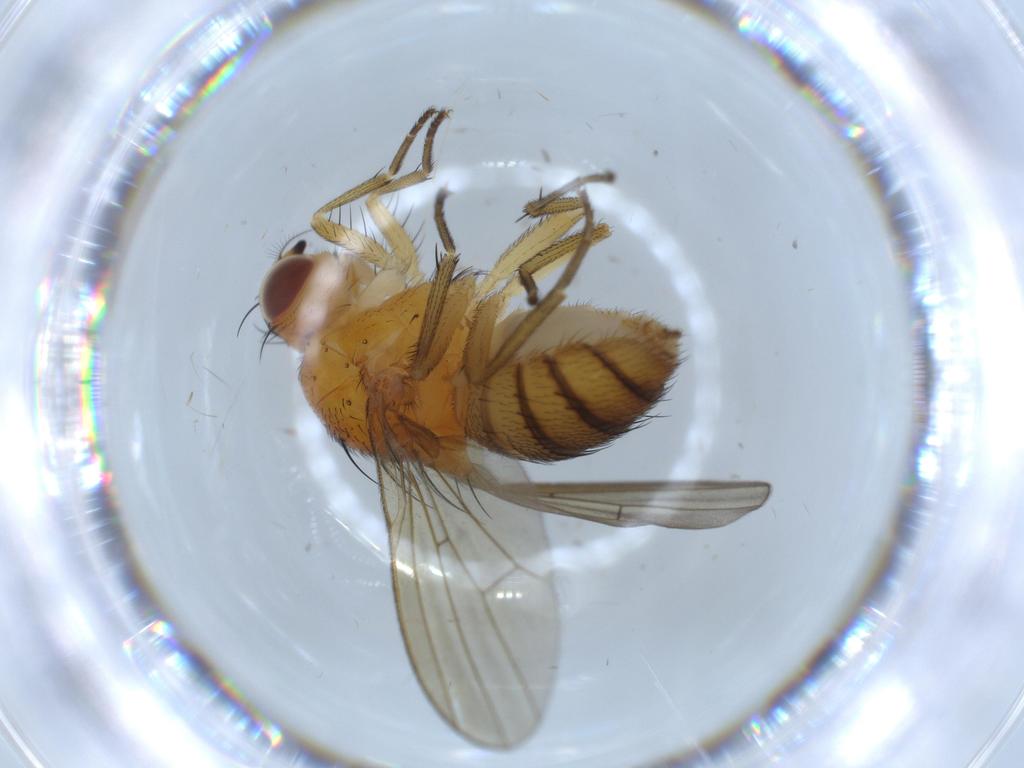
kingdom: Animalia
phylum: Arthropoda
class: Insecta
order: Diptera
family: Lauxaniidae
